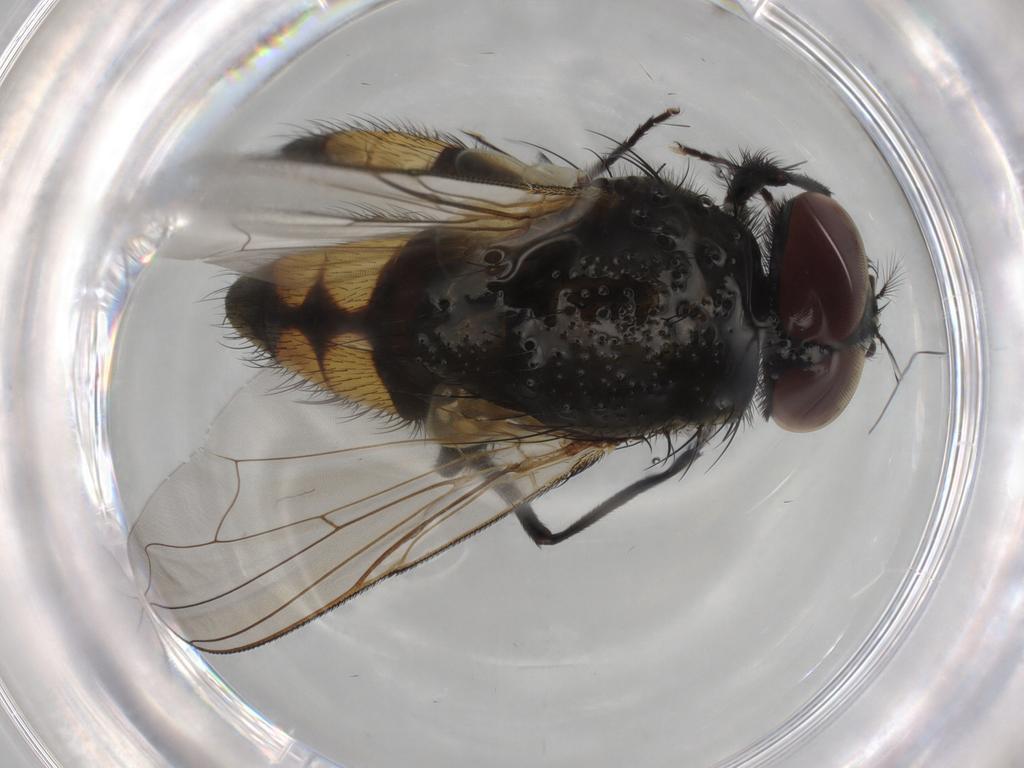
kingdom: Animalia
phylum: Arthropoda
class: Insecta
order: Diptera
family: Muscidae
